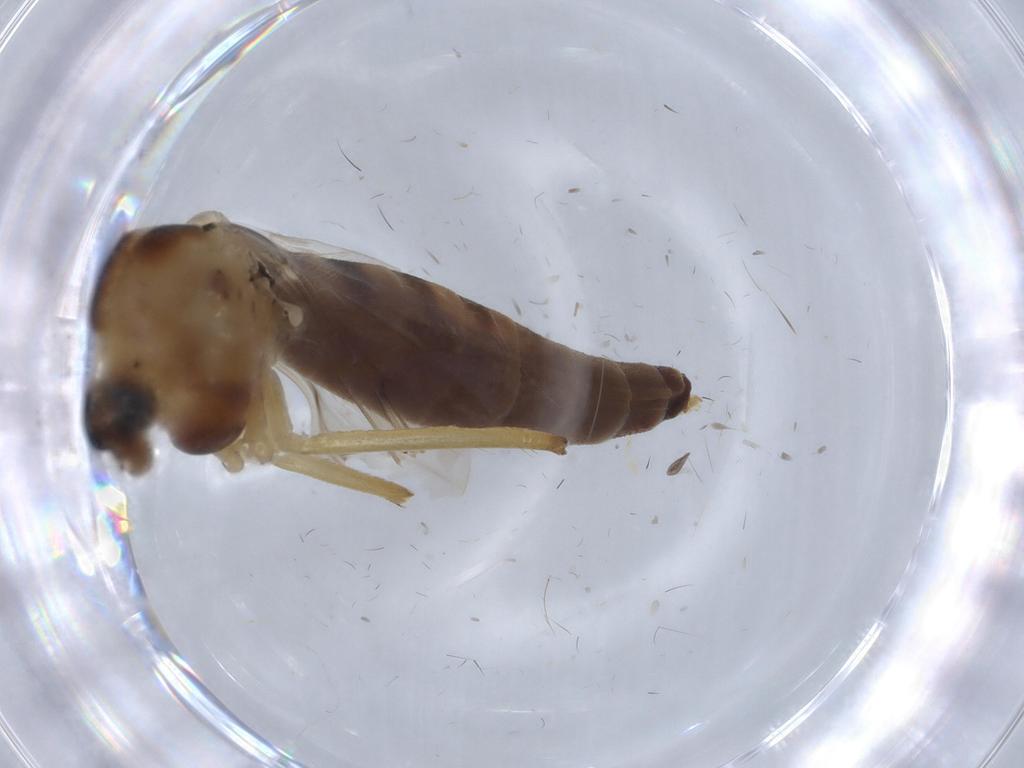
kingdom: Animalia
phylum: Arthropoda
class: Insecta
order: Diptera
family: Chironomidae
